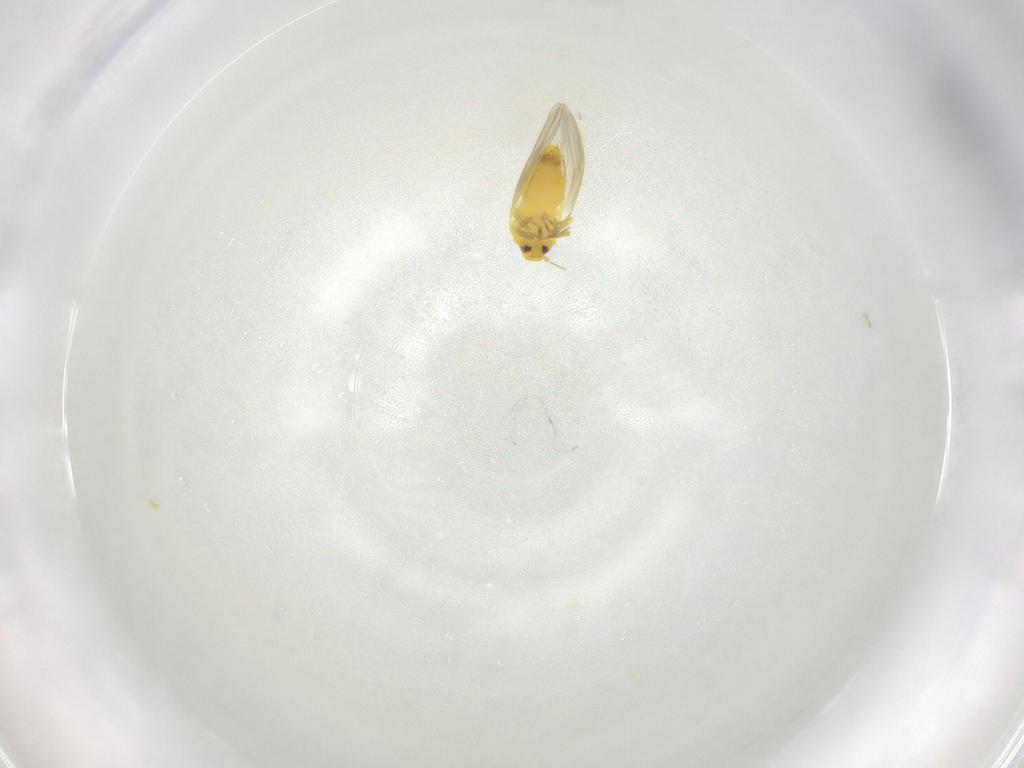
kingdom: Animalia
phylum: Arthropoda
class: Insecta
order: Hemiptera
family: Aleyrodidae
